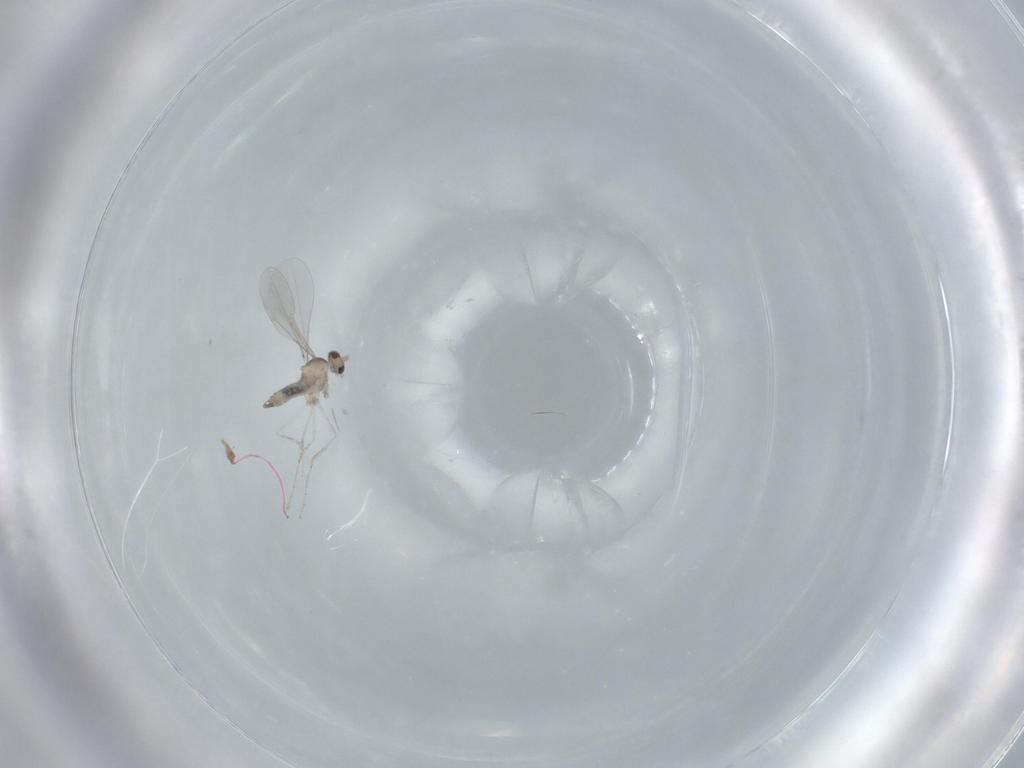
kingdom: Animalia
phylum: Arthropoda
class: Insecta
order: Diptera
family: Cecidomyiidae
